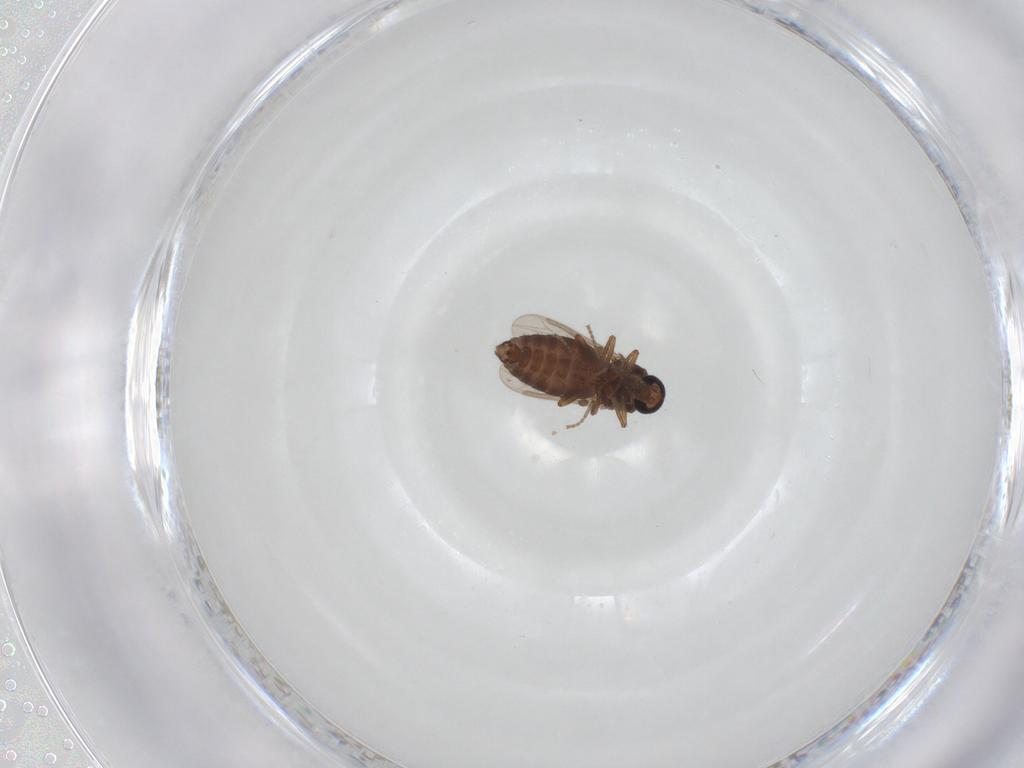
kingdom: Animalia
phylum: Arthropoda
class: Insecta
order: Diptera
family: Ceratopogonidae
